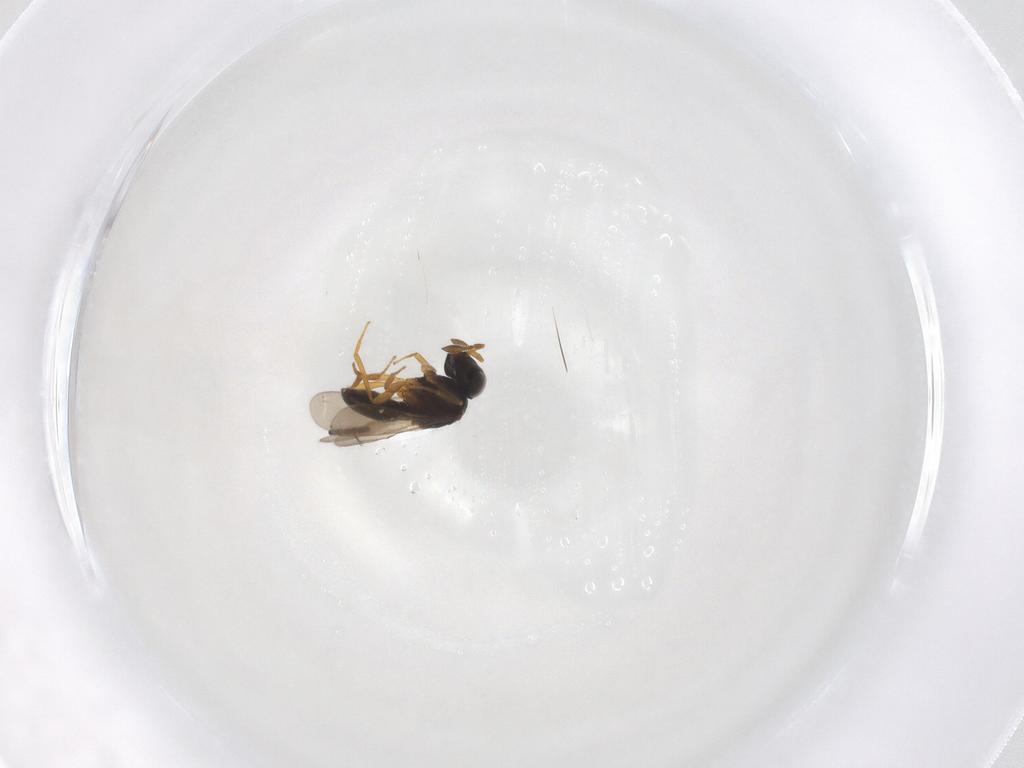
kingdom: Animalia
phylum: Arthropoda
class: Insecta
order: Hymenoptera
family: Scelionidae
